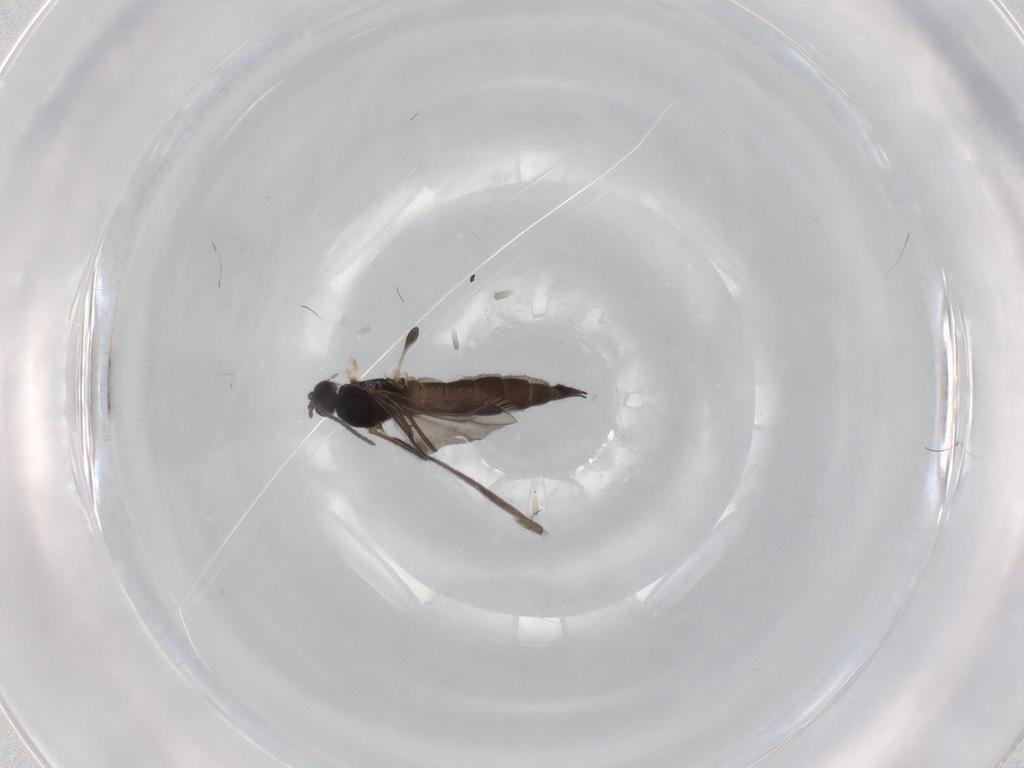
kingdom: Animalia
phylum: Arthropoda
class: Insecta
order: Diptera
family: Sciaridae
